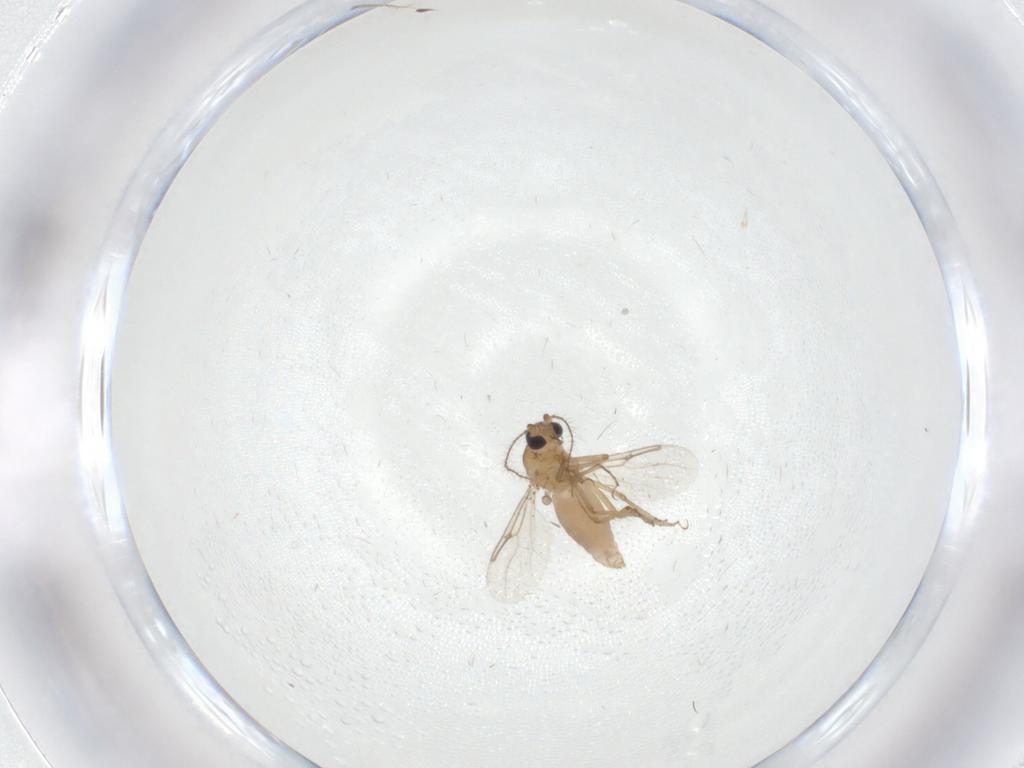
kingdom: Animalia
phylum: Arthropoda
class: Insecta
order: Diptera
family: Ceratopogonidae
